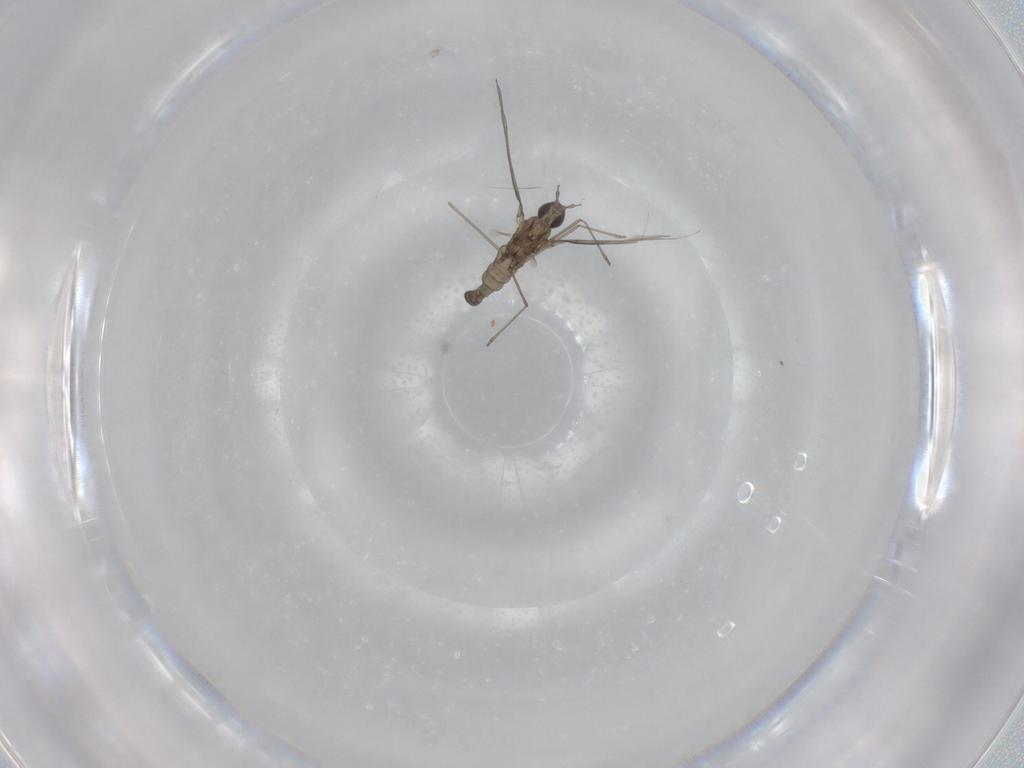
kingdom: Animalia
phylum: Arthropoda
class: Insecta
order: Diptera
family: Cecidomyiidae
